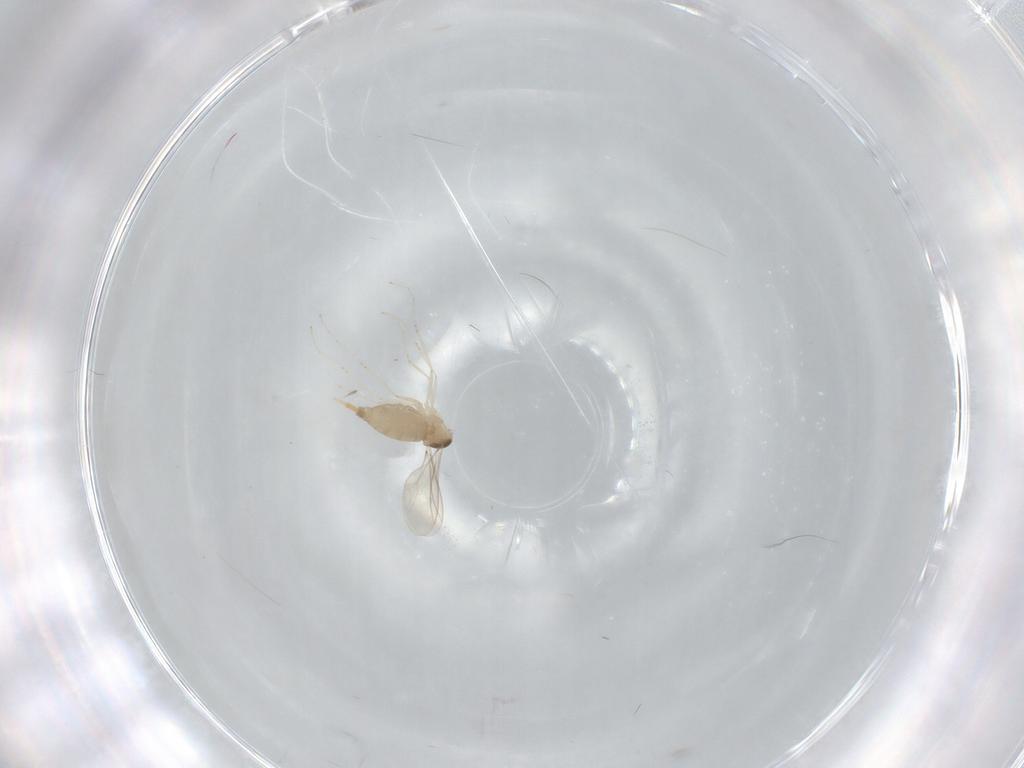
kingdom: Animalia
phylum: Arthropoda
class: Insecta
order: Diptera
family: Cecidomyiidae
